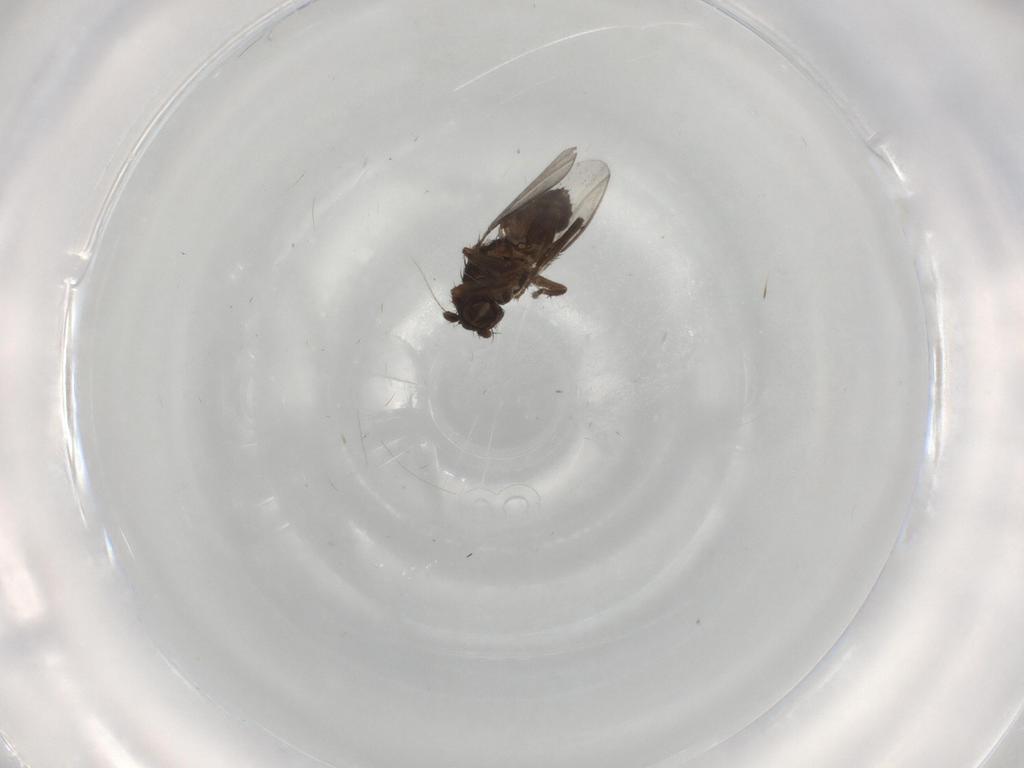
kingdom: Animalia
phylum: Arthropoda
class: Insecta
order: Diptera
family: Sphaeroceridae
